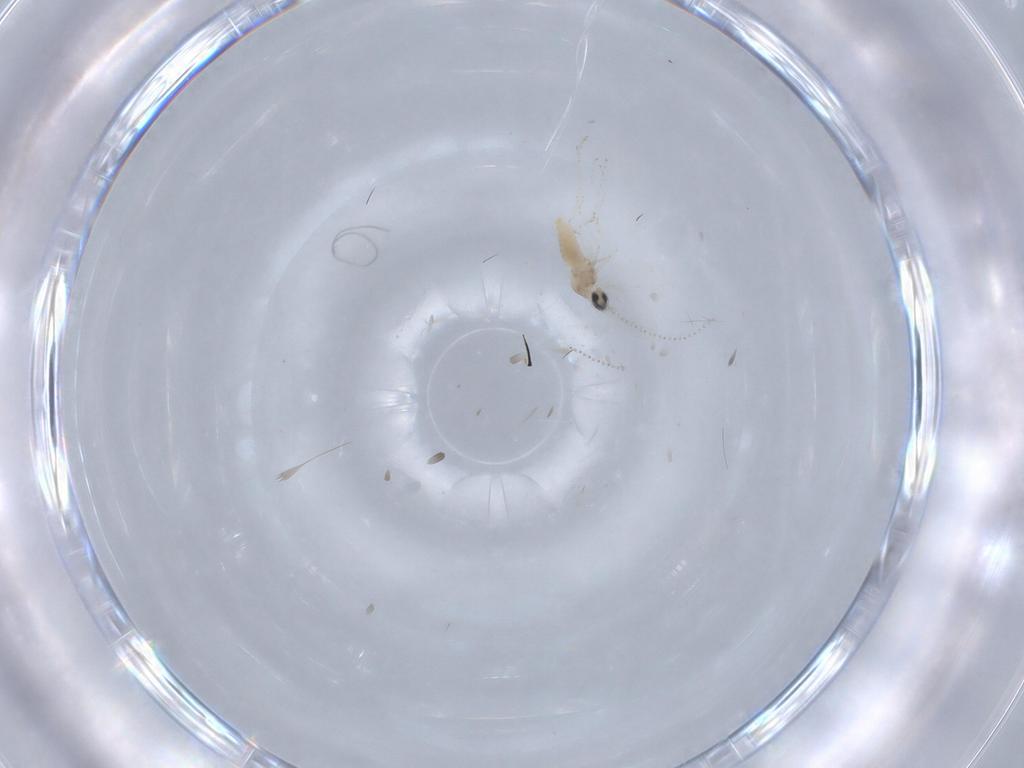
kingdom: Animalia
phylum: Arthropoda
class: Insecta
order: Diptera
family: Cecidomyiidae
